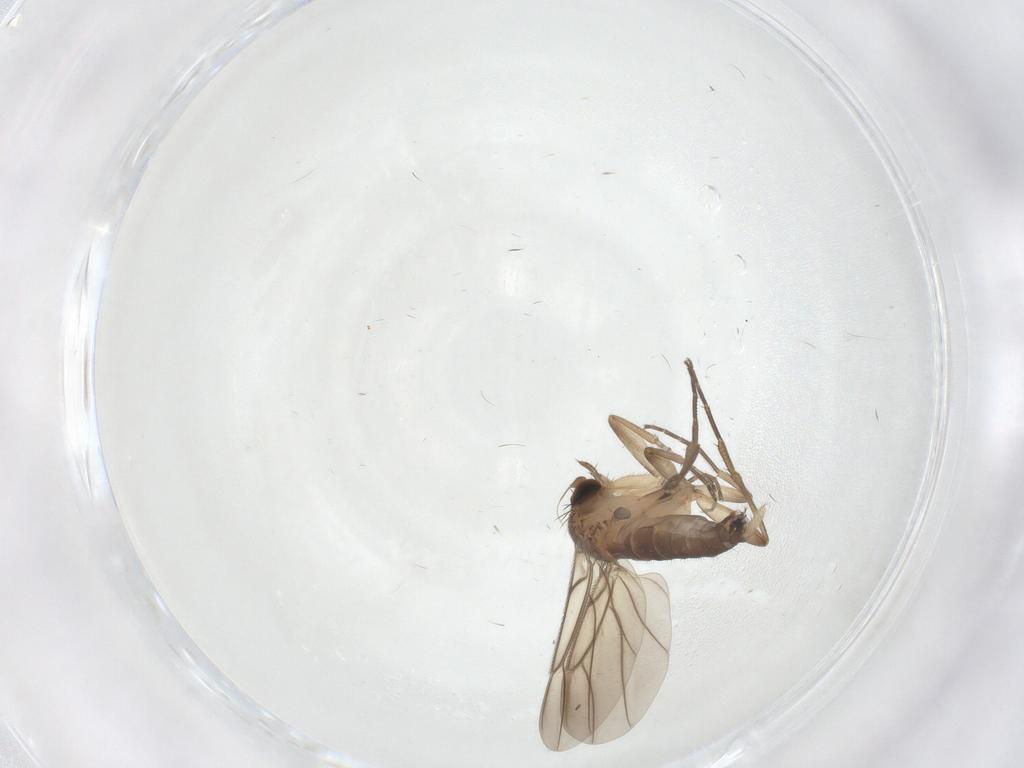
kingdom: Animalia
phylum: Arthropoda
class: Insecta
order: Diptera
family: Phoridae
